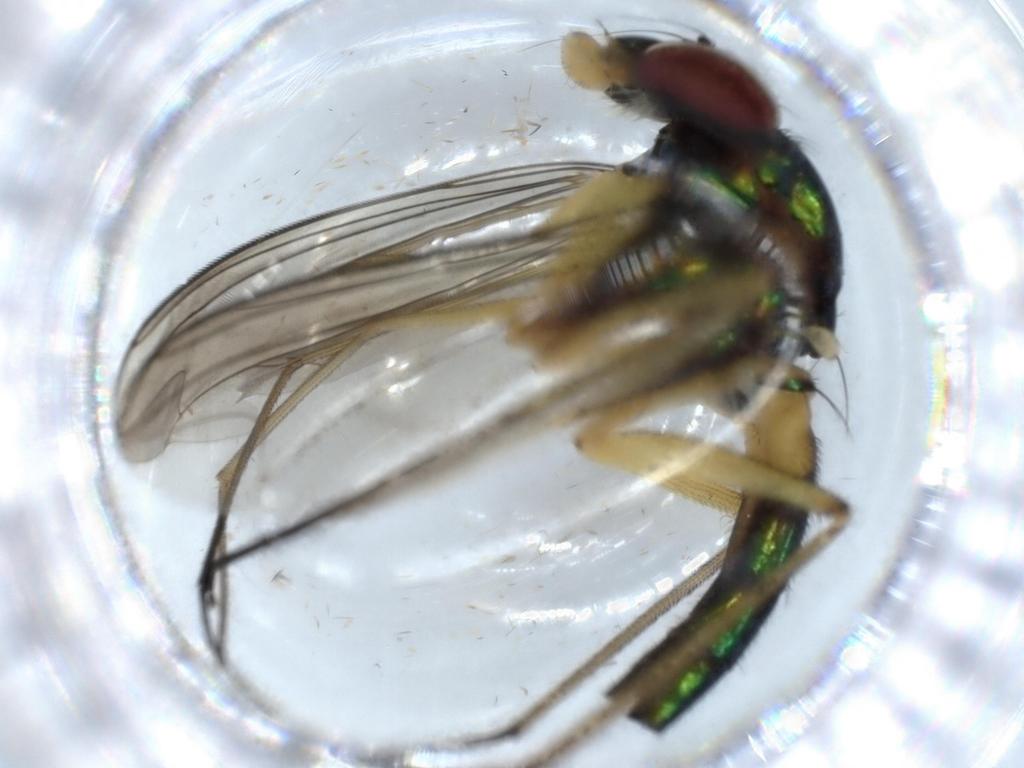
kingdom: Animalia
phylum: Arthropoda
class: Insecta
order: Diptera
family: Dolichopodidae
